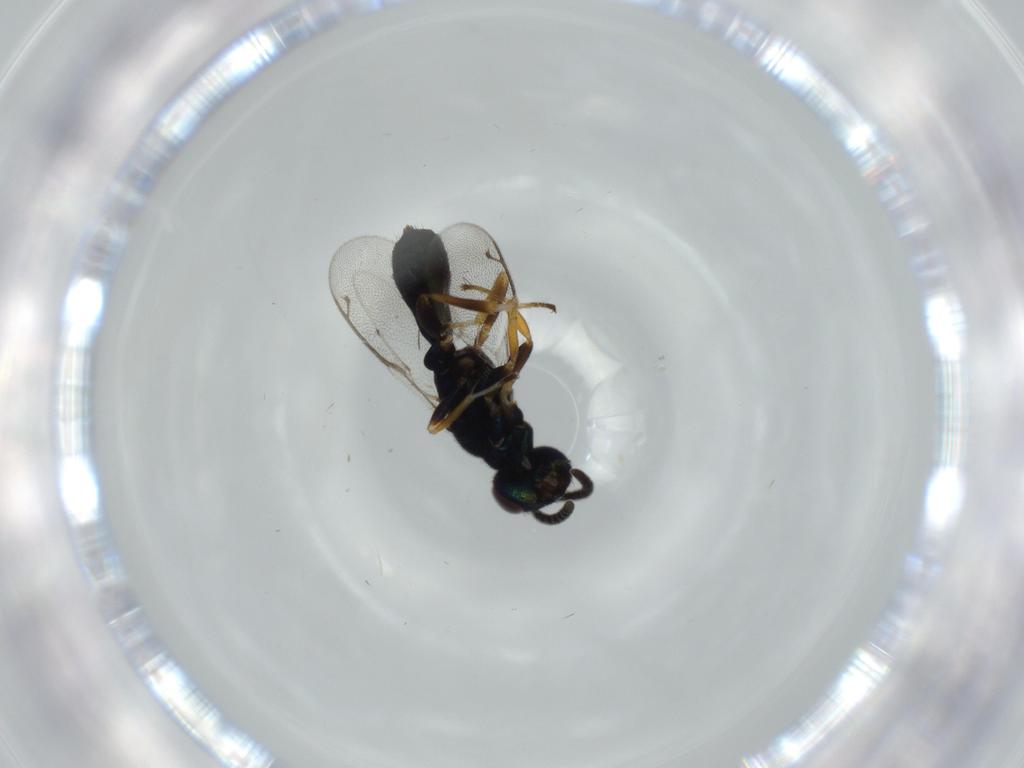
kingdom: Animalia
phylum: Arthropoda
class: Insecta
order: Hymenoptera
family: Eupelmidae
